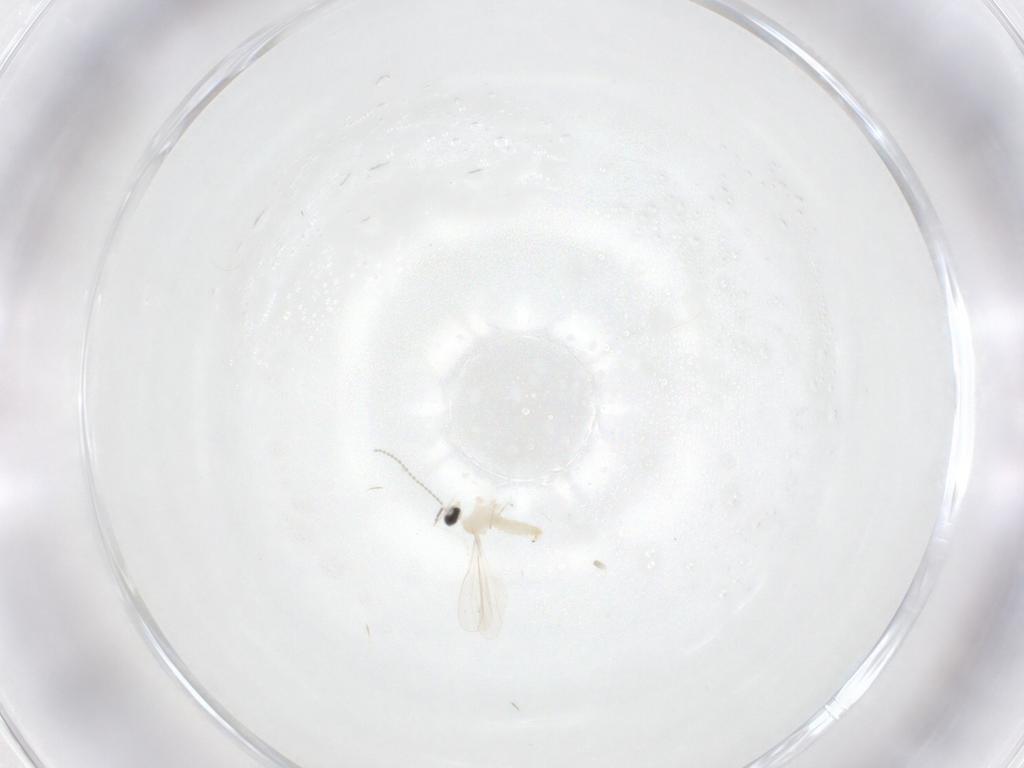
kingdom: Animalia
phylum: Arthropoda
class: Insecta
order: Diptera
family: Cecidomyiidae
